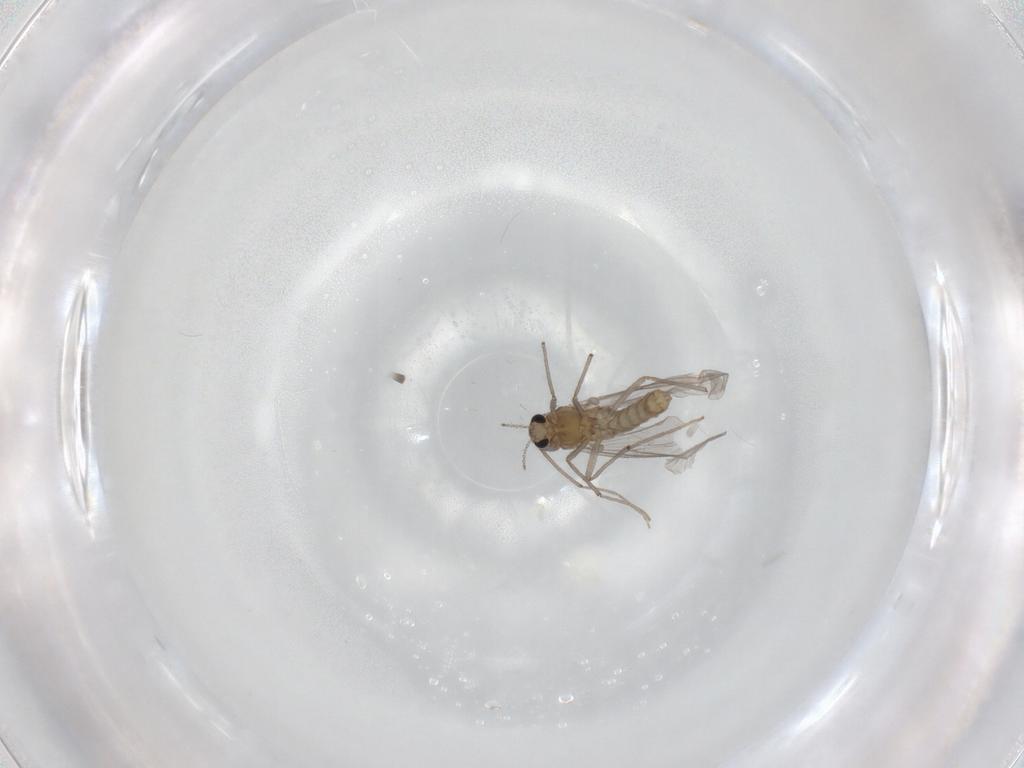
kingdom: Animalia
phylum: Arthropoda
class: Insecta
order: Diptera
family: Chironomidae
